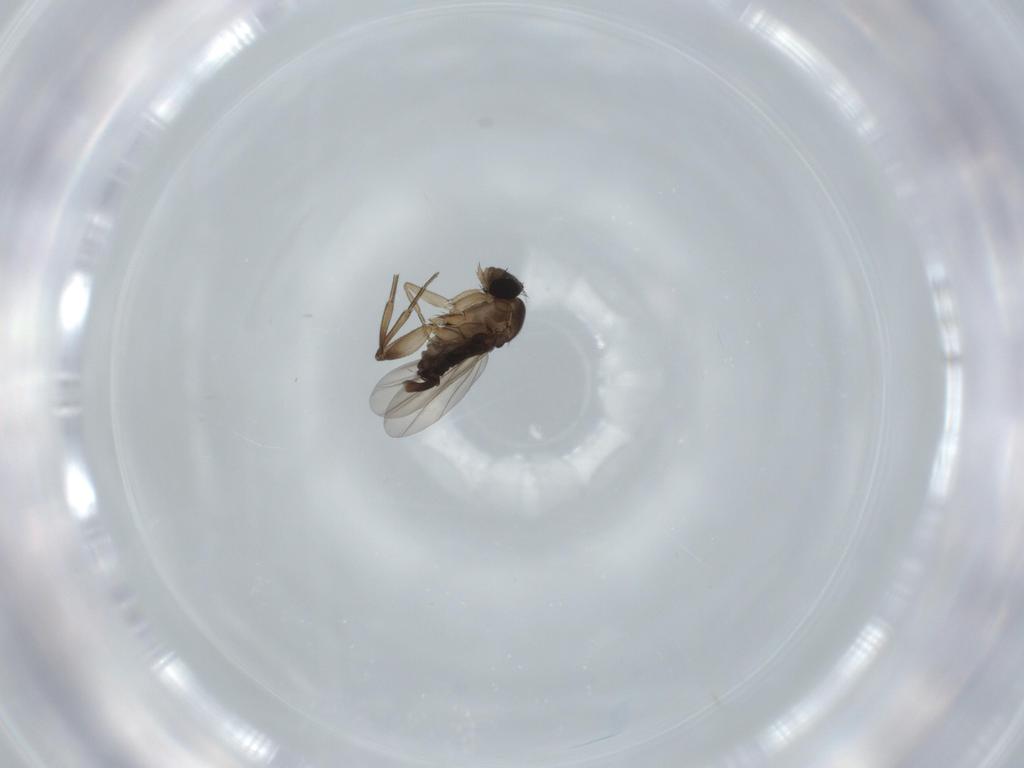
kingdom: Animalia
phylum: Arthropoda
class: Insecta
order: Diptera
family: Phoridae
